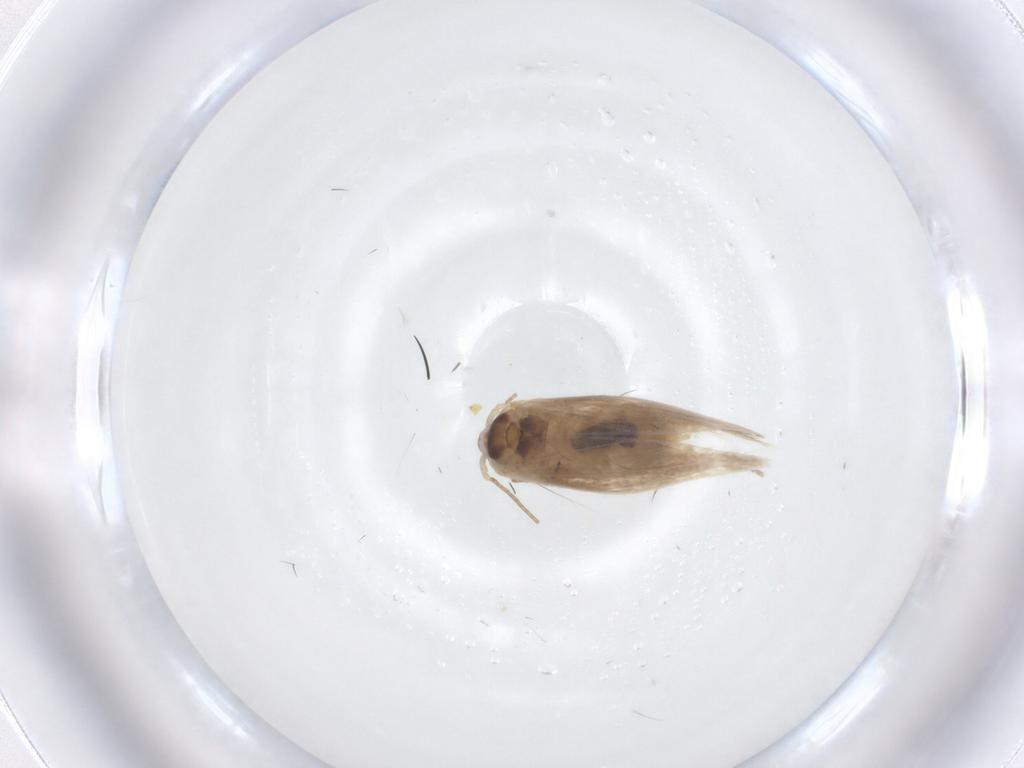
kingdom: Animalia
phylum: Arthropoda
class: Insecta
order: Lepidoptera
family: Bucculatricidae
